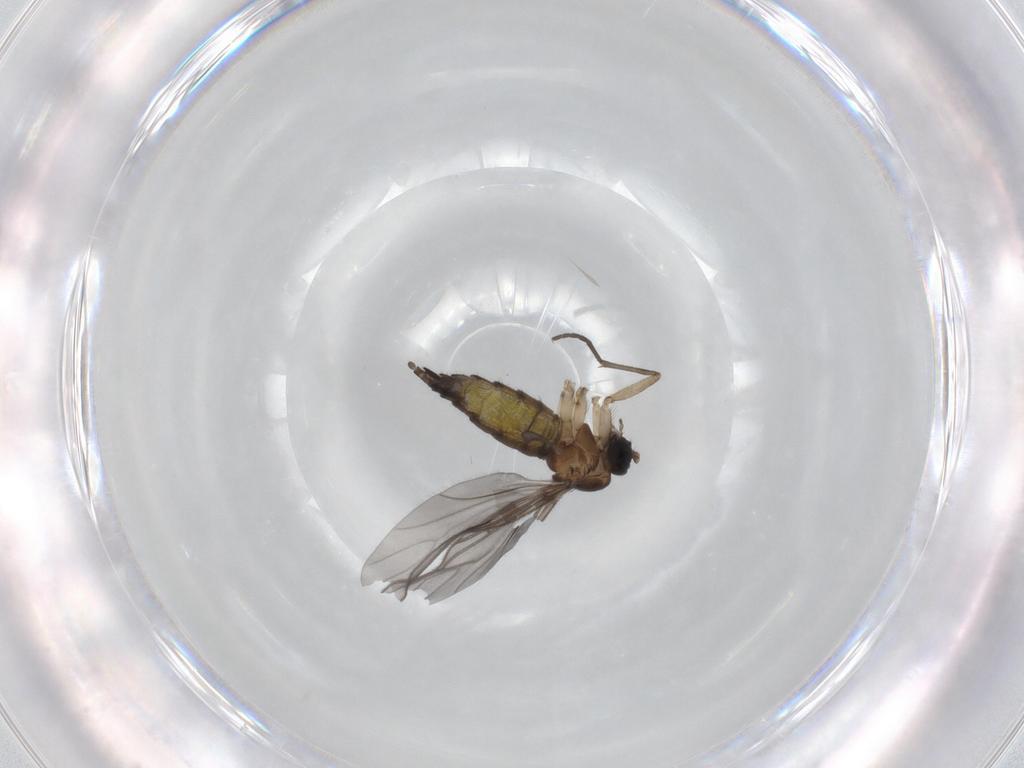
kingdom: Animalia
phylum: Arthropoda
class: Insecta
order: Diptera
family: Sciaridae
